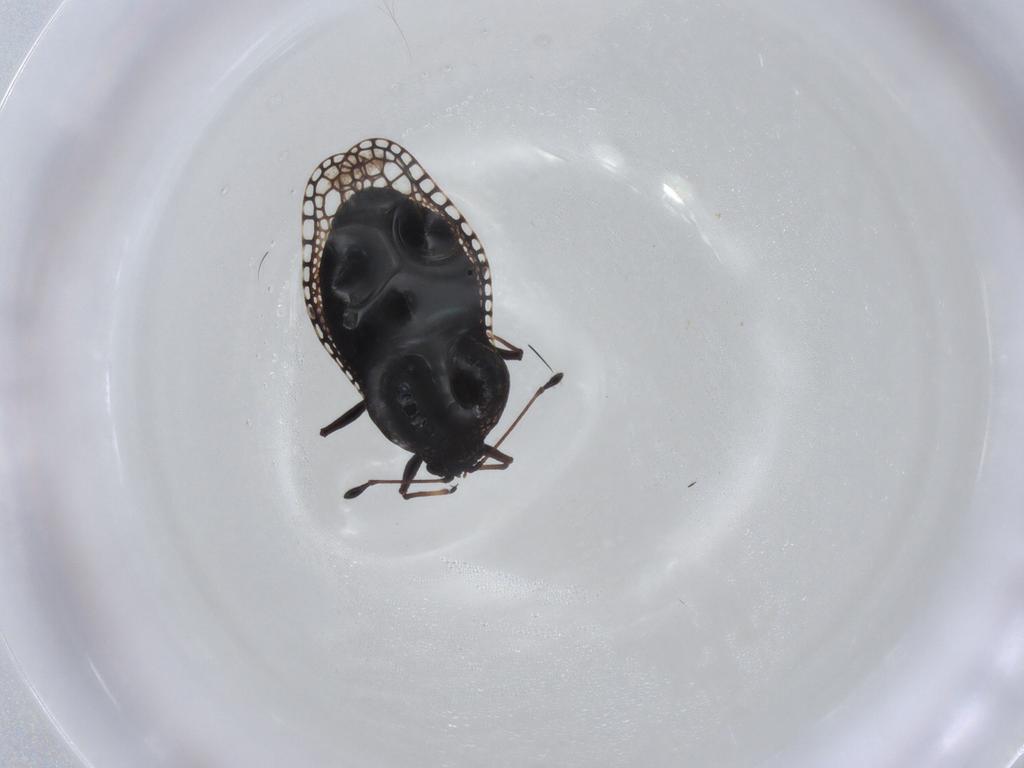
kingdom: Animalia
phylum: Arthropoda
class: Insecta
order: Hemiptera
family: Tingidae
